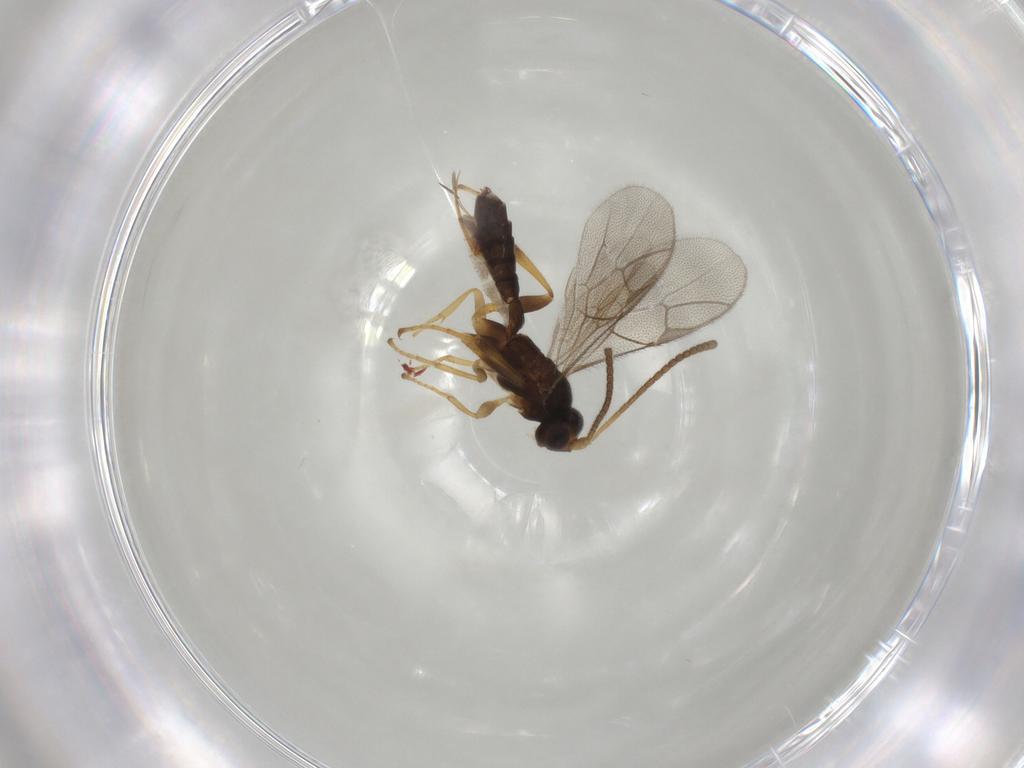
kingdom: Animalia
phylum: Arthropoda
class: Insecta
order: Hymenoptera
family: Ichneumonidae
